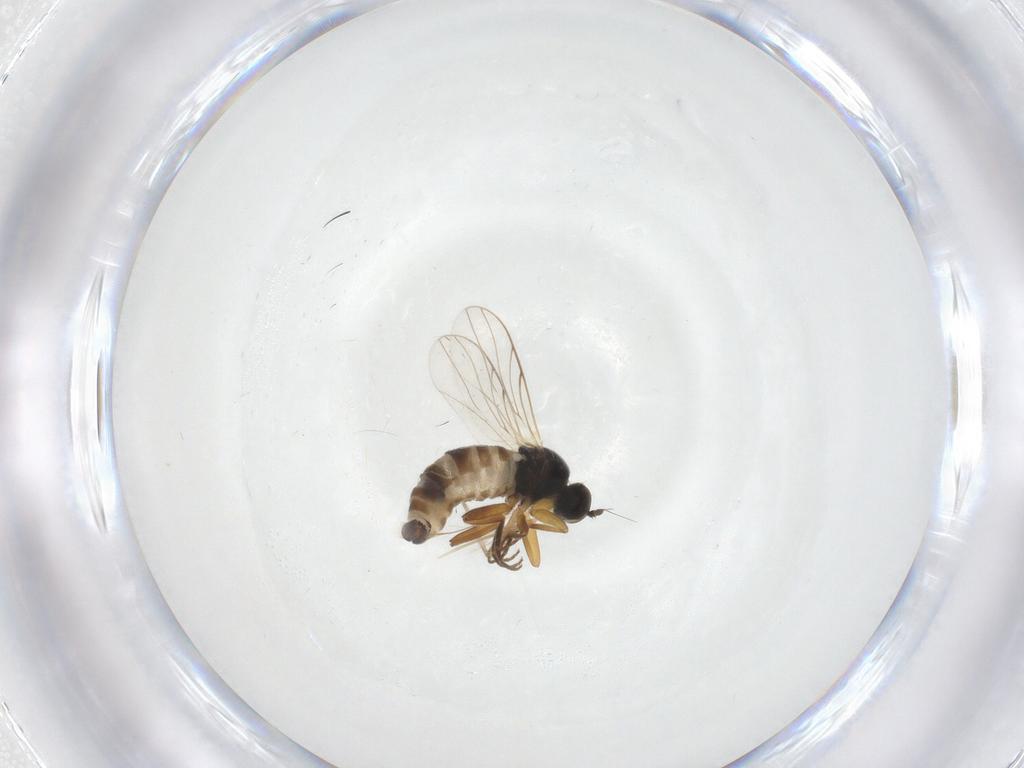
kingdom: Animalia
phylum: Arthropoda
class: Insecta
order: Diptera
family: Hybotidae
